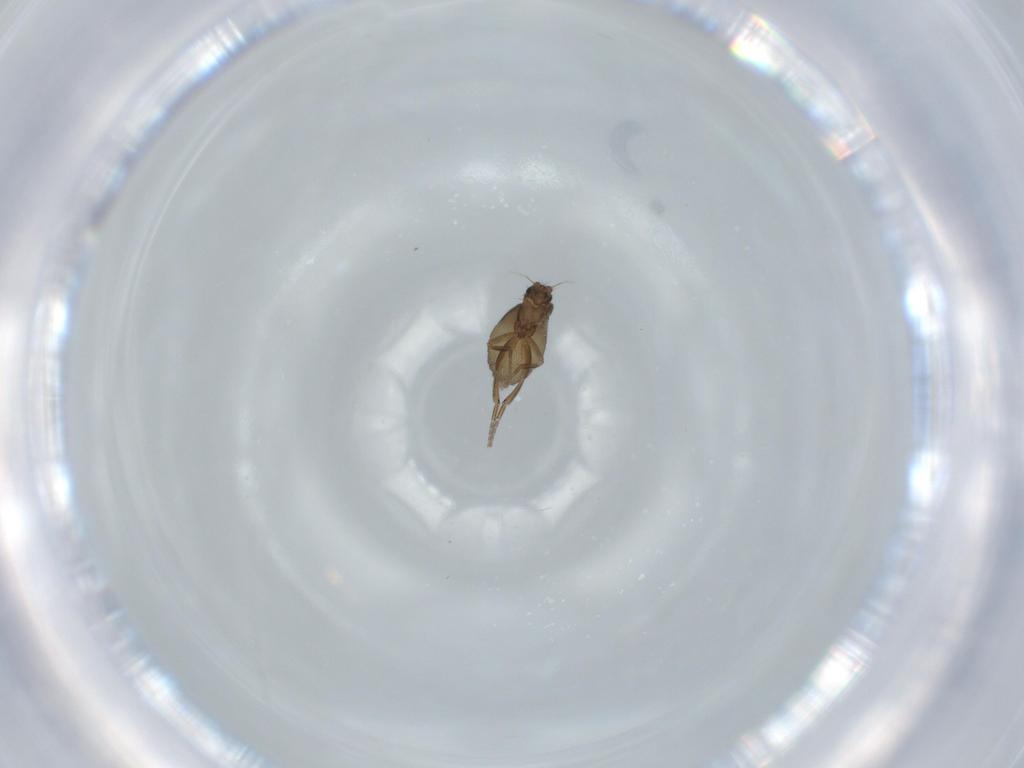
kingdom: Animalia
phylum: Arthropoda
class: Insecta
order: Diptera
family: Phoridae
